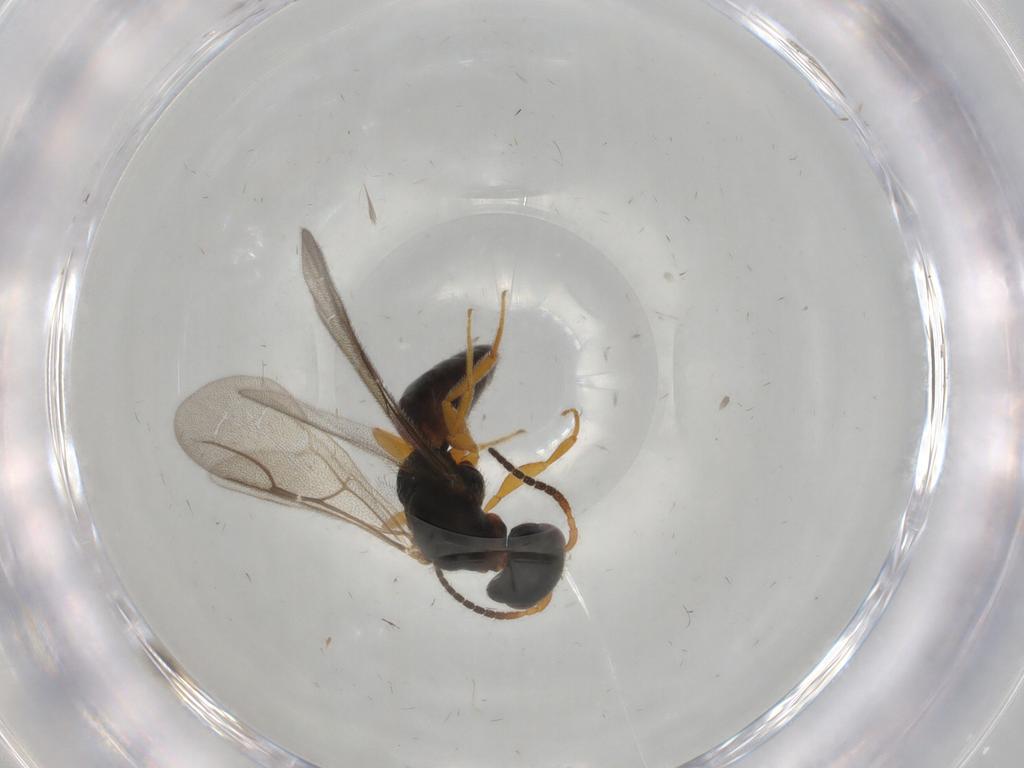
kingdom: Animalia
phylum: Arthropoda
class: Insecta
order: Hymenoptera
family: Bethylidae
